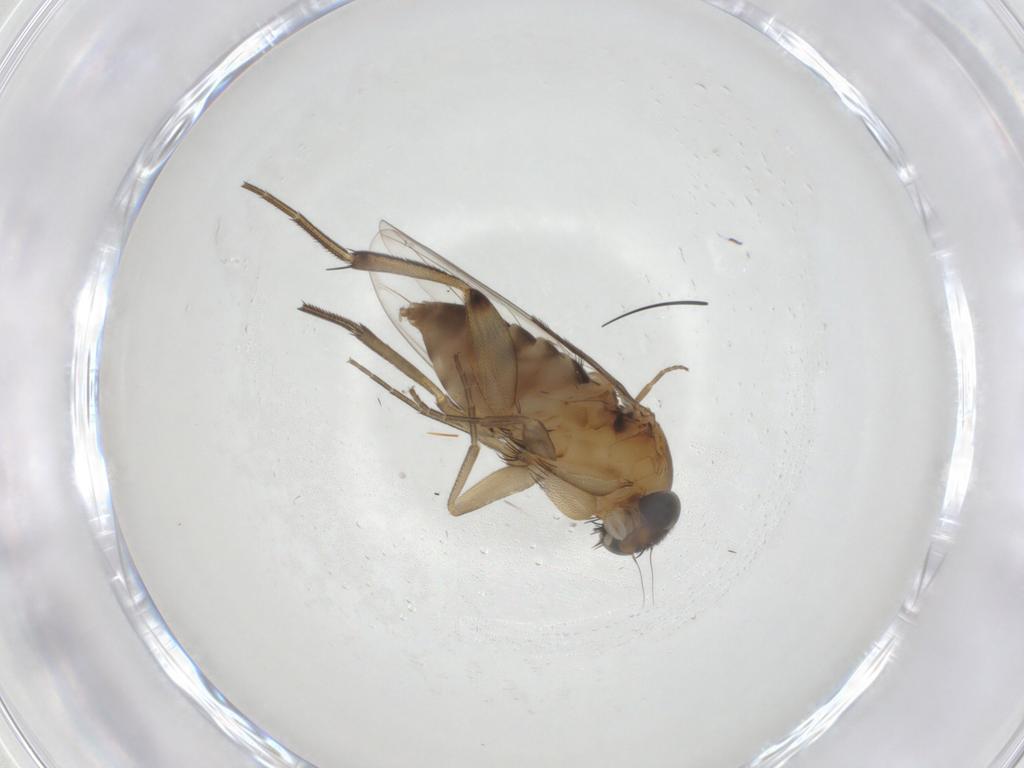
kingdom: Animalia
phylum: Arthropoda
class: Insecta
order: Diptera
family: Phoridae
